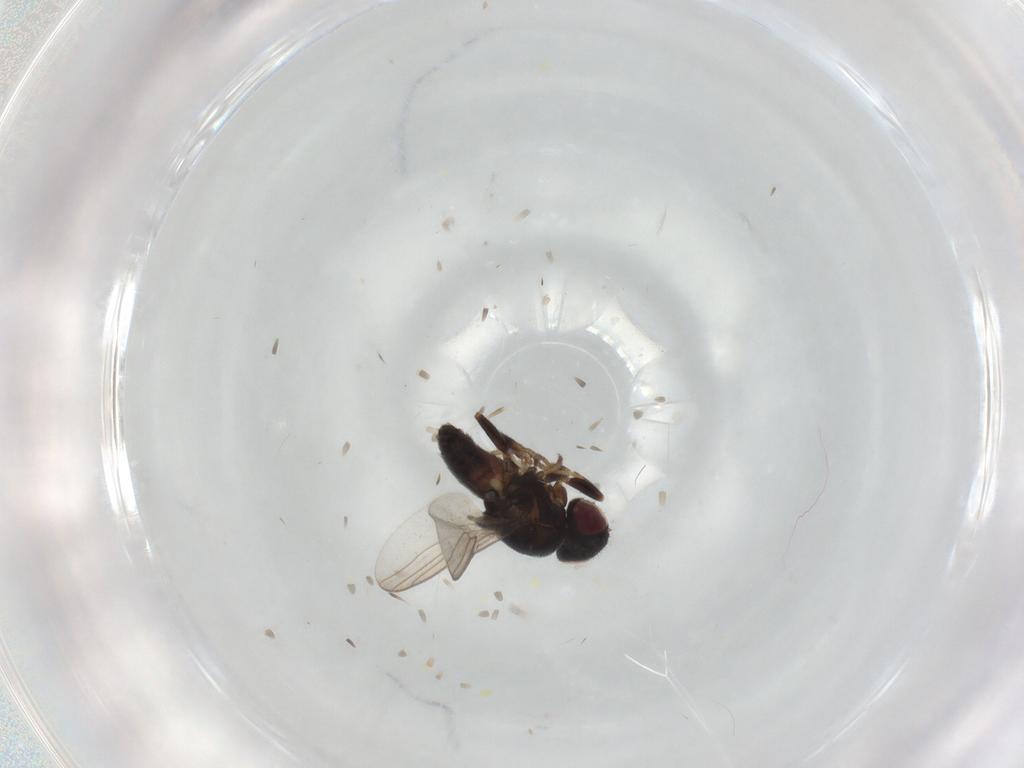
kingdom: Animalia
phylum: Arthropoda
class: Insecta
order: Diptera
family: Chloropidae
